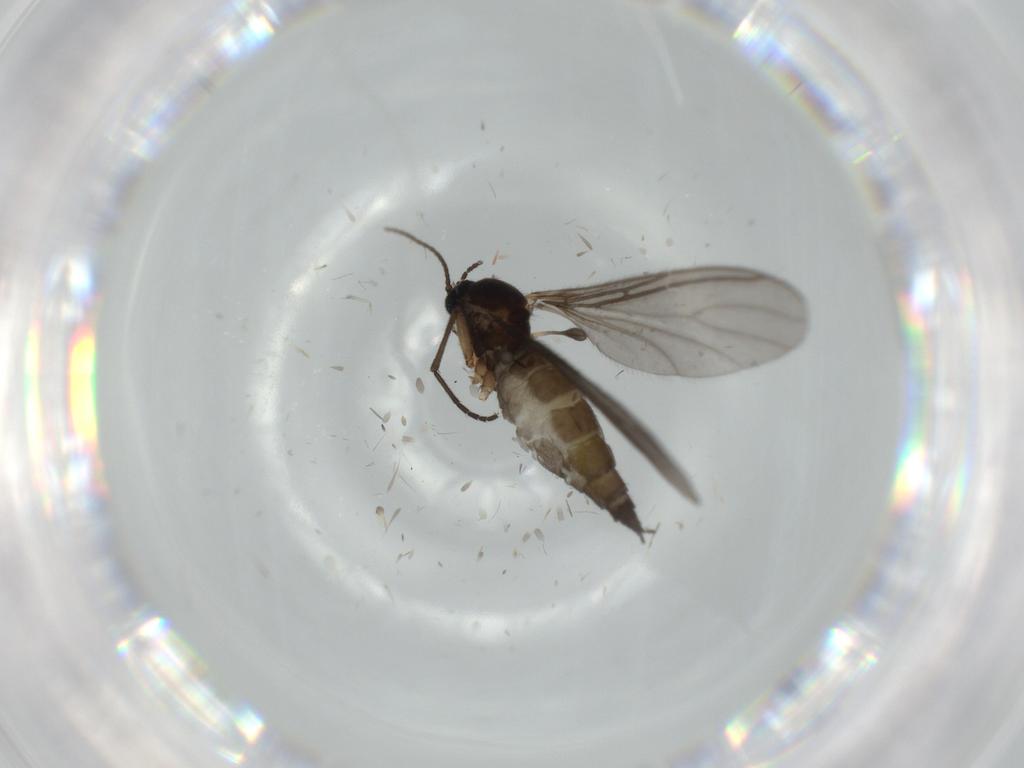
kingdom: Animalia
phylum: Arthropoda
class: Insecta
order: Diptera
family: Sciaridae
